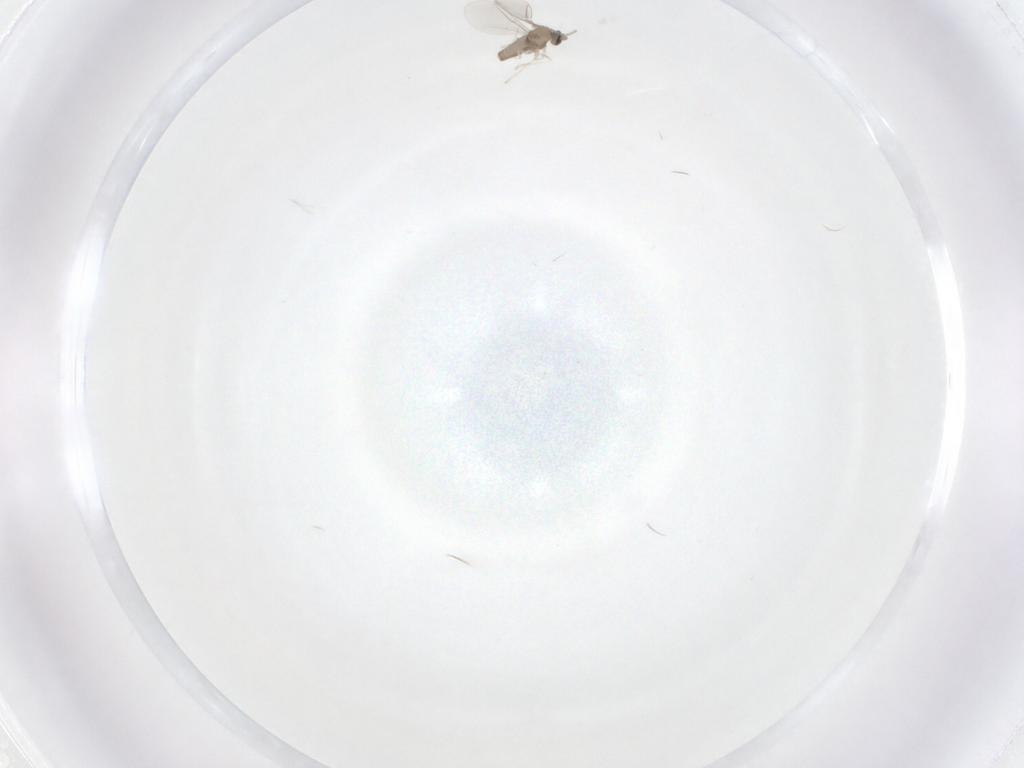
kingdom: Animalia
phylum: Arthropoda
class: Insecta
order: Diptera
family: Cecidomyiidae
